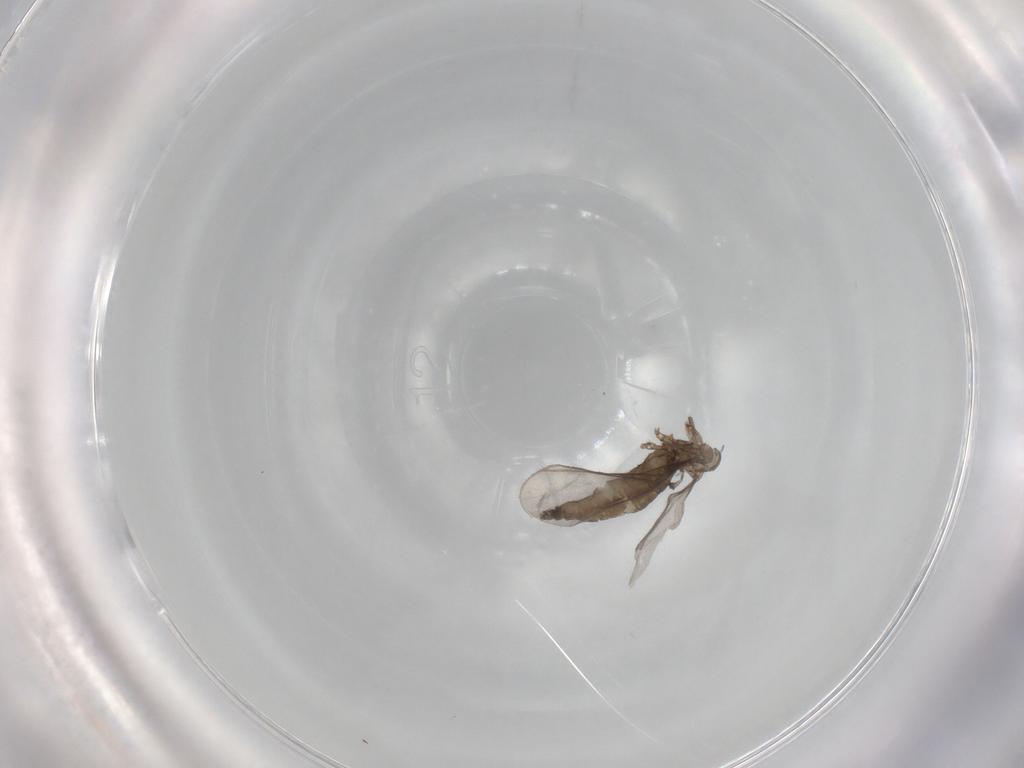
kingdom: Animalia
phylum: Arthropoda
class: Insecta
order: Diptera
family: Sciaridae
